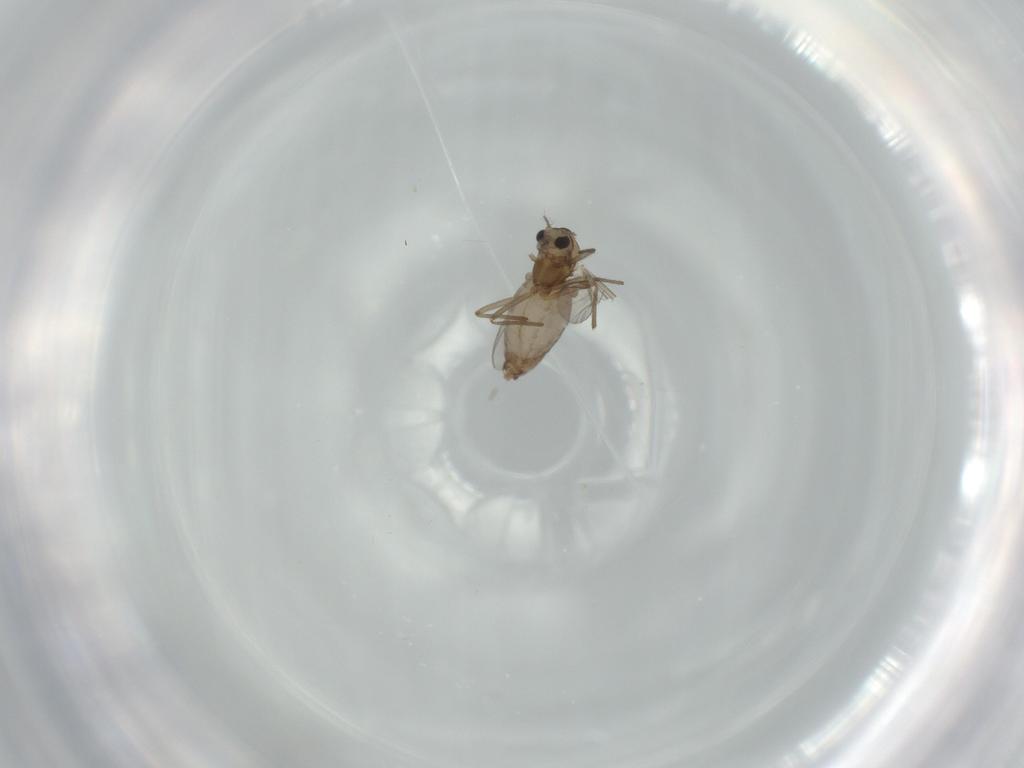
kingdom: Animalia
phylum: Arthropoda
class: Insecta
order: Diptera
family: Chironomidae
